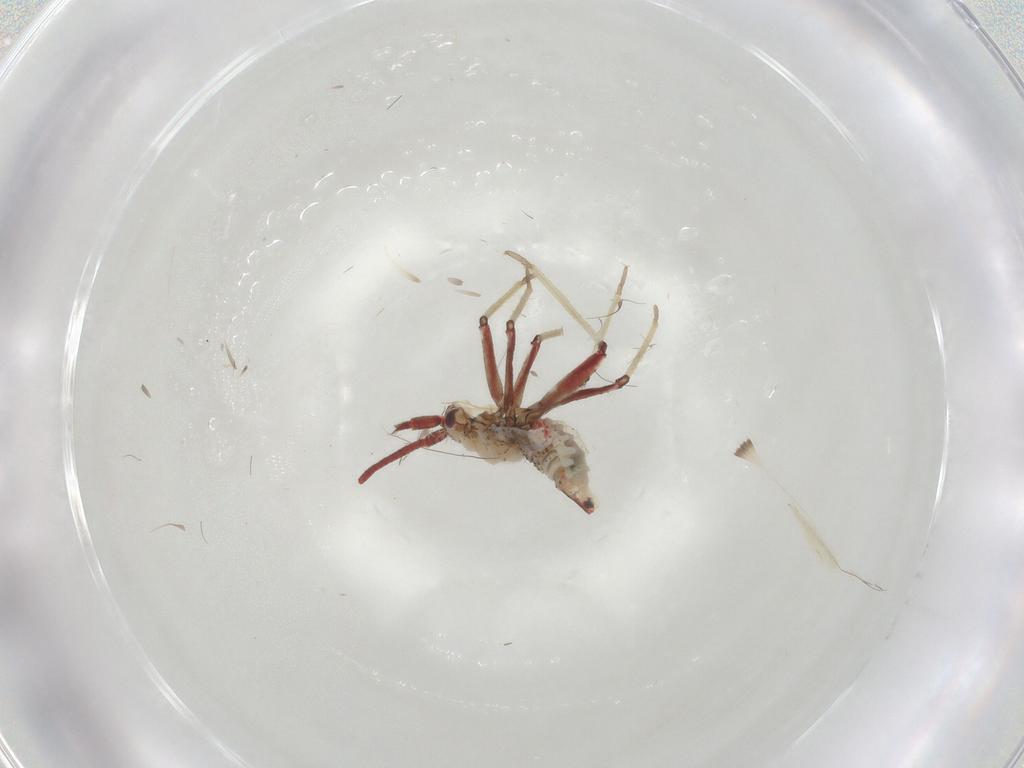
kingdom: Animalia
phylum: Arthropoda
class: Insecta
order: Hemiptera
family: Miridae
